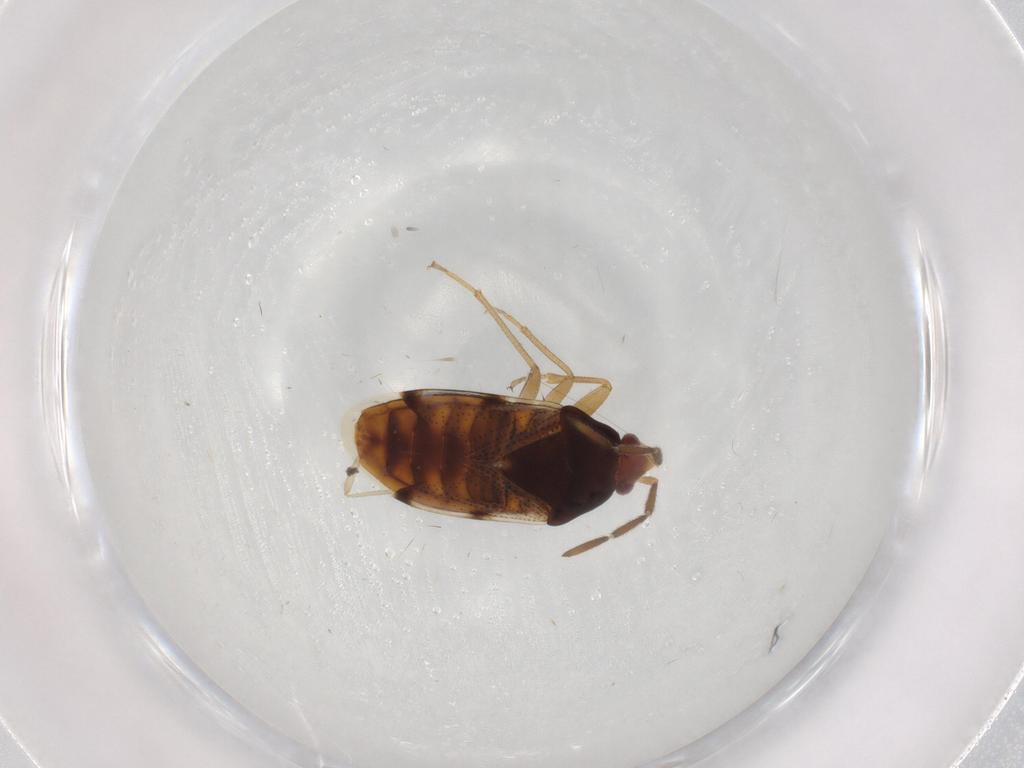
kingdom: Animalia
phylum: Arthropoda
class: Insecta
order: Hemiptera
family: Rhyparochromidae
